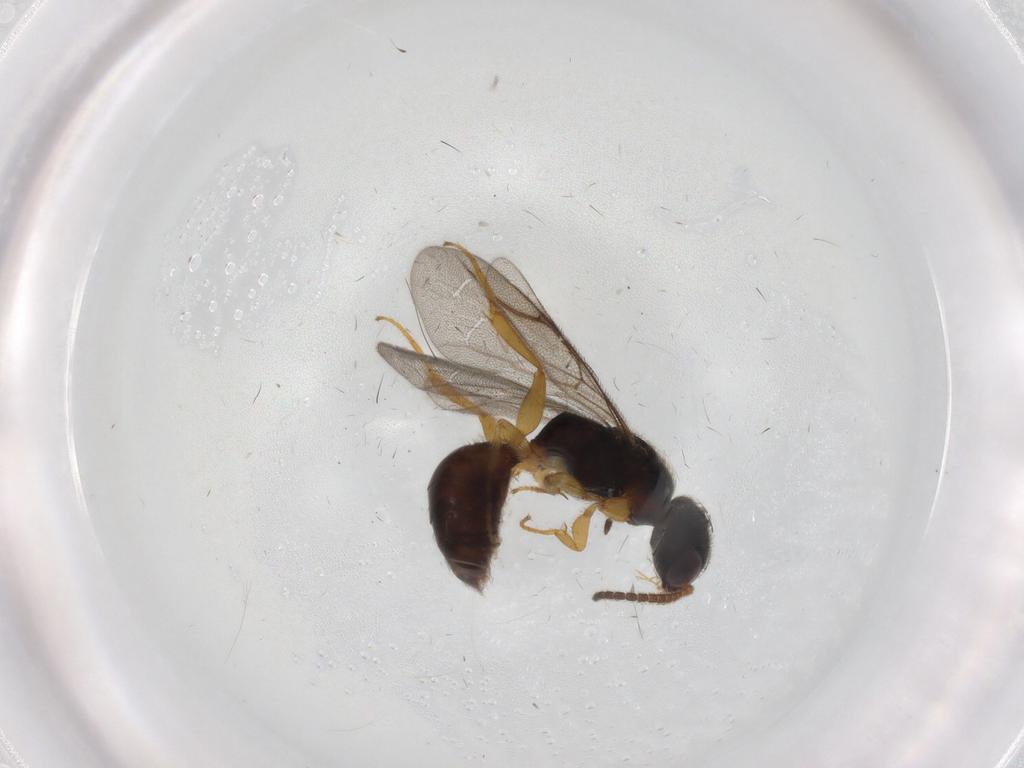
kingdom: Animalia
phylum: Arthropoda
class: Insecta
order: Hymenoptera
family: Bethylidae
